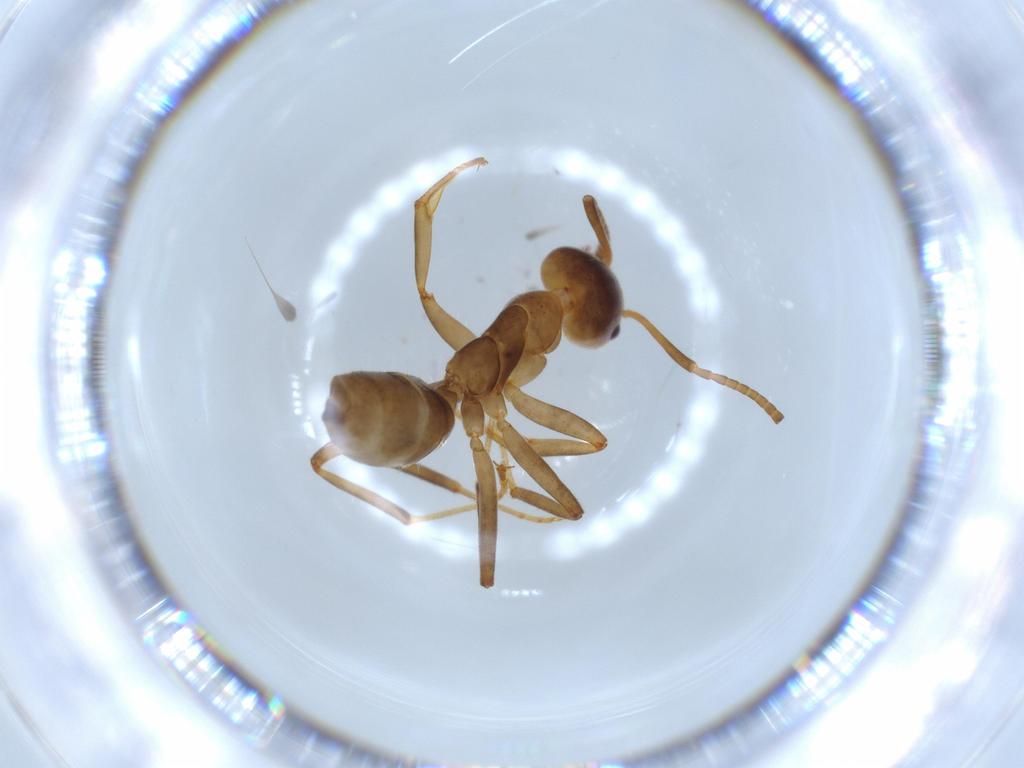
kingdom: Animalia
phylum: Arthropoda
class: Insecta
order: Hymenoptera
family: Formicidae
